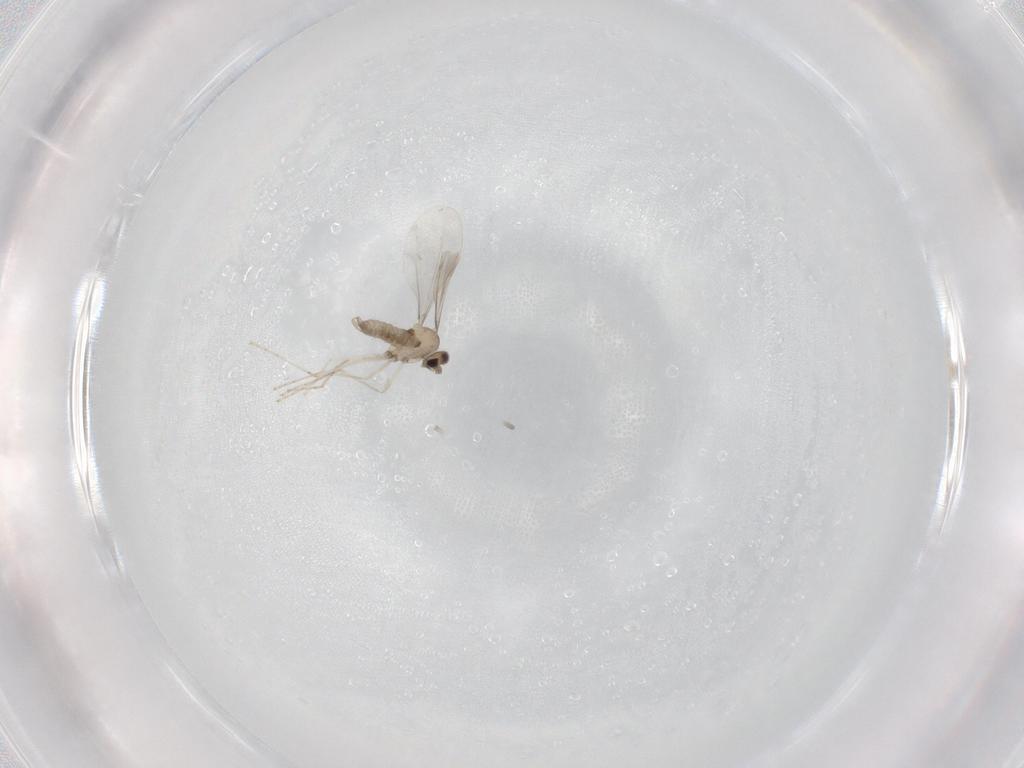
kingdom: Animalia
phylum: Arthropoda
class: Insecta
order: Diptera
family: Cecidomyiidae
